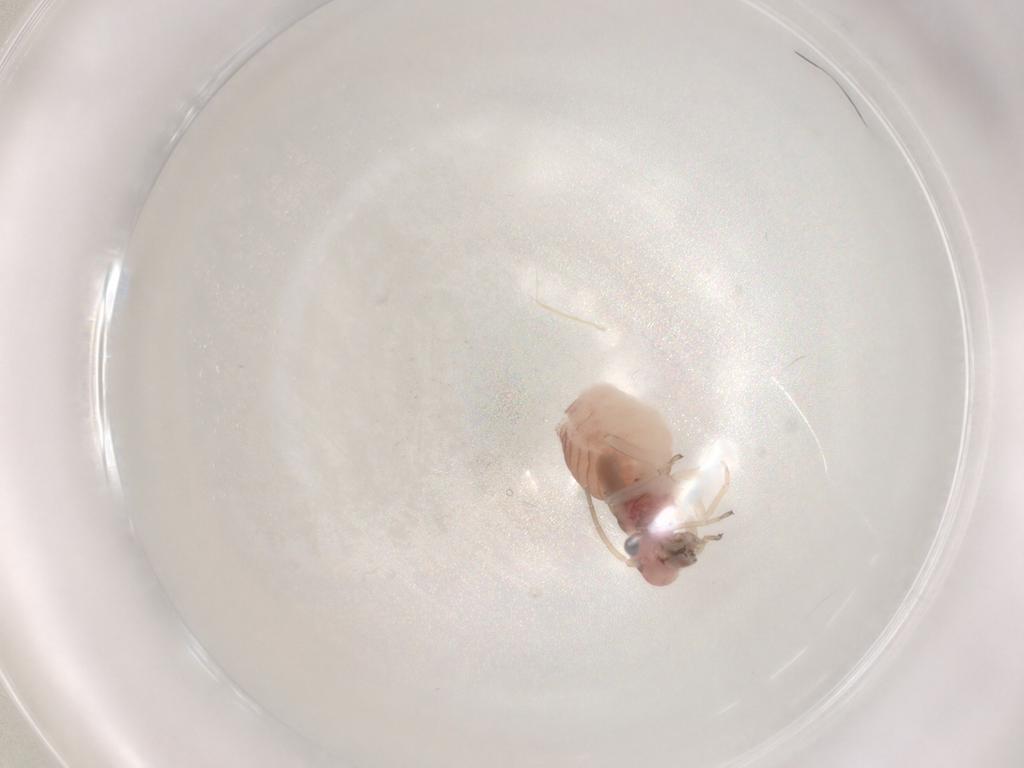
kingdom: Animalia
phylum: Arthropoda
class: Insecta
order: Psocodea
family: Caeciliusidae
